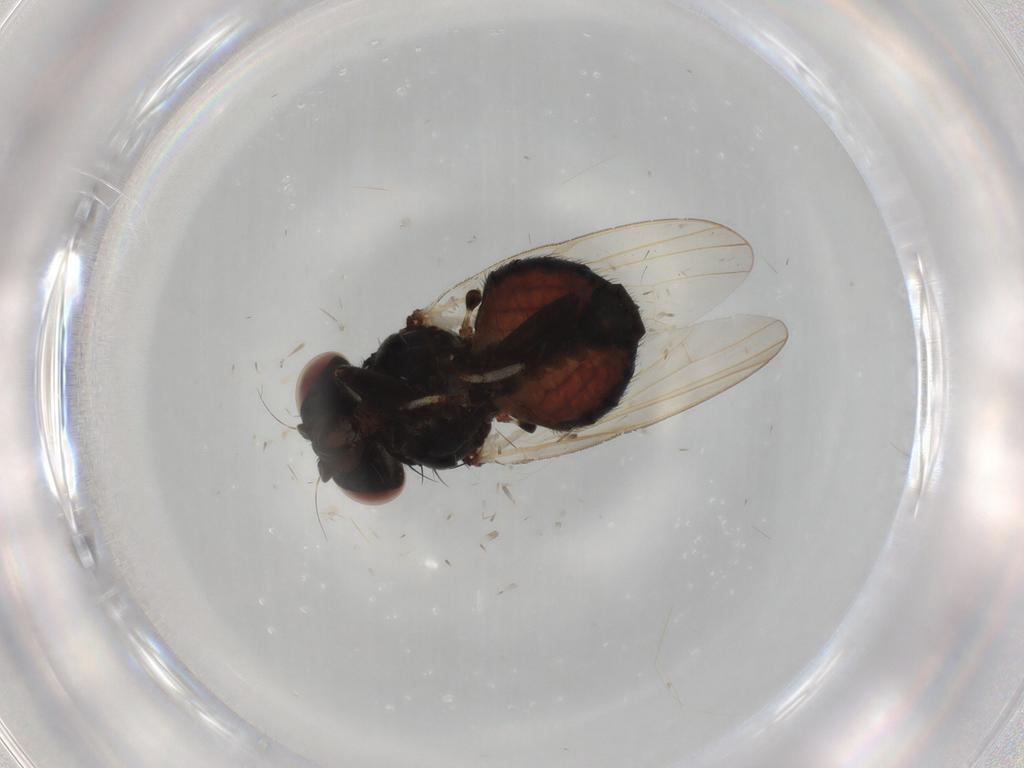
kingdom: Animalia
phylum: Arthropoda
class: Insecta
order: Diptera
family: Lonchaeidae
